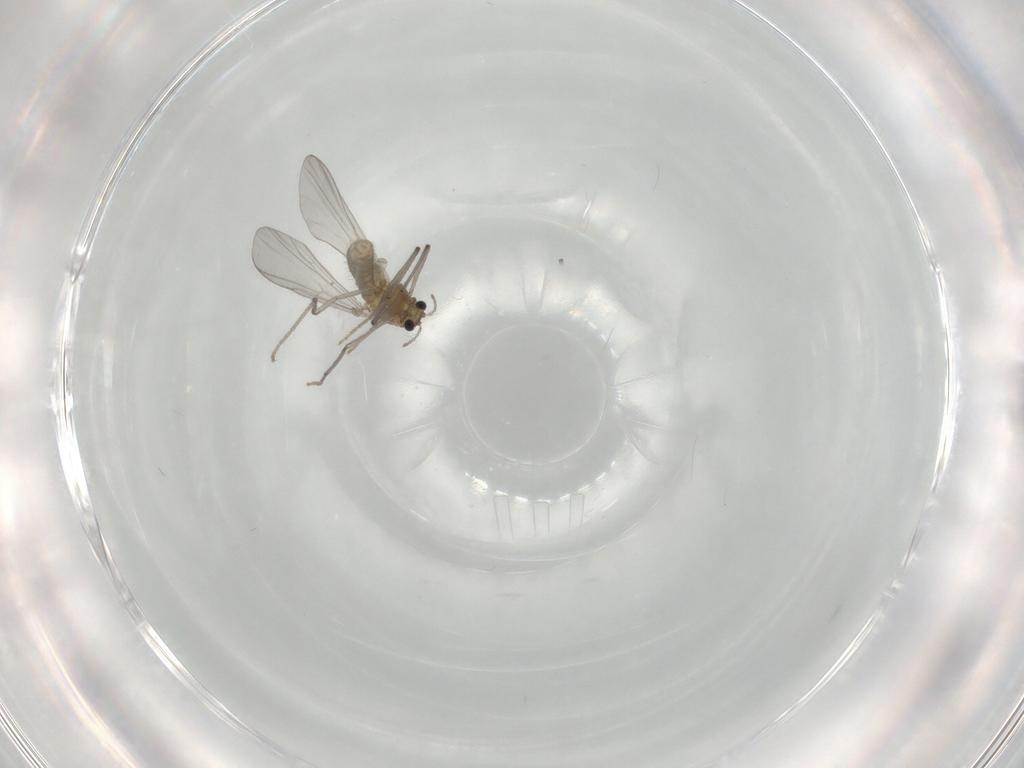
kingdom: Animalia
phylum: Arthropoda
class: Insecta
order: Diptera
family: Chironomidae
